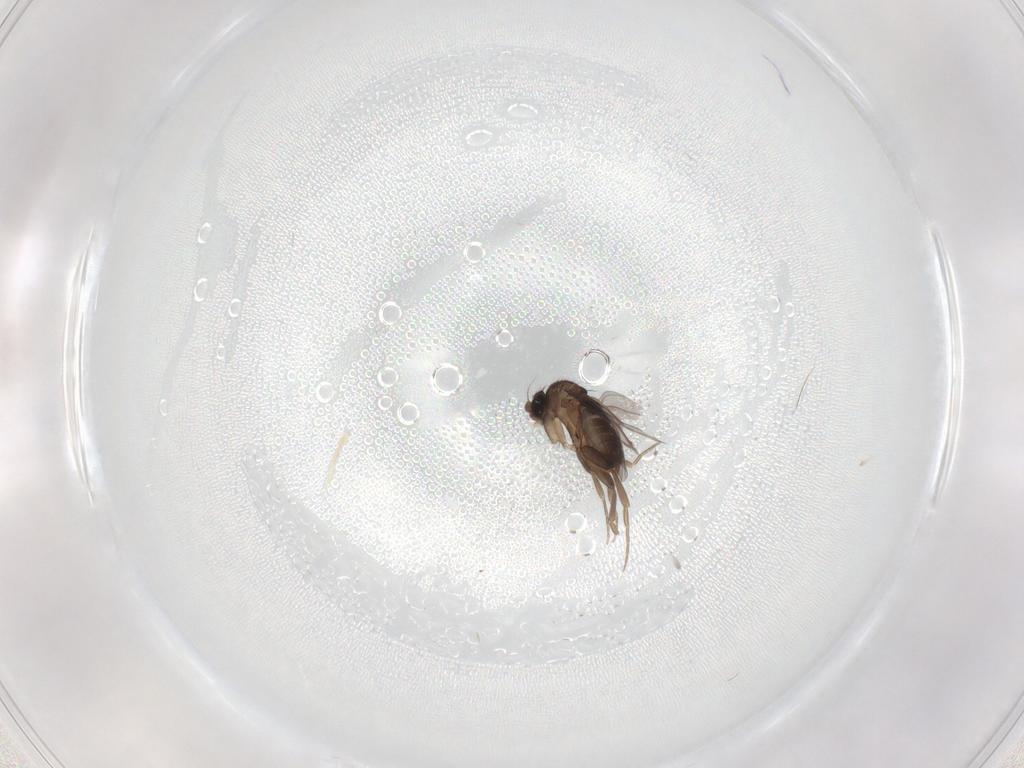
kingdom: Animalia
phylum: Arthropoda
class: Insecta
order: Diptera
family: Phoridae
